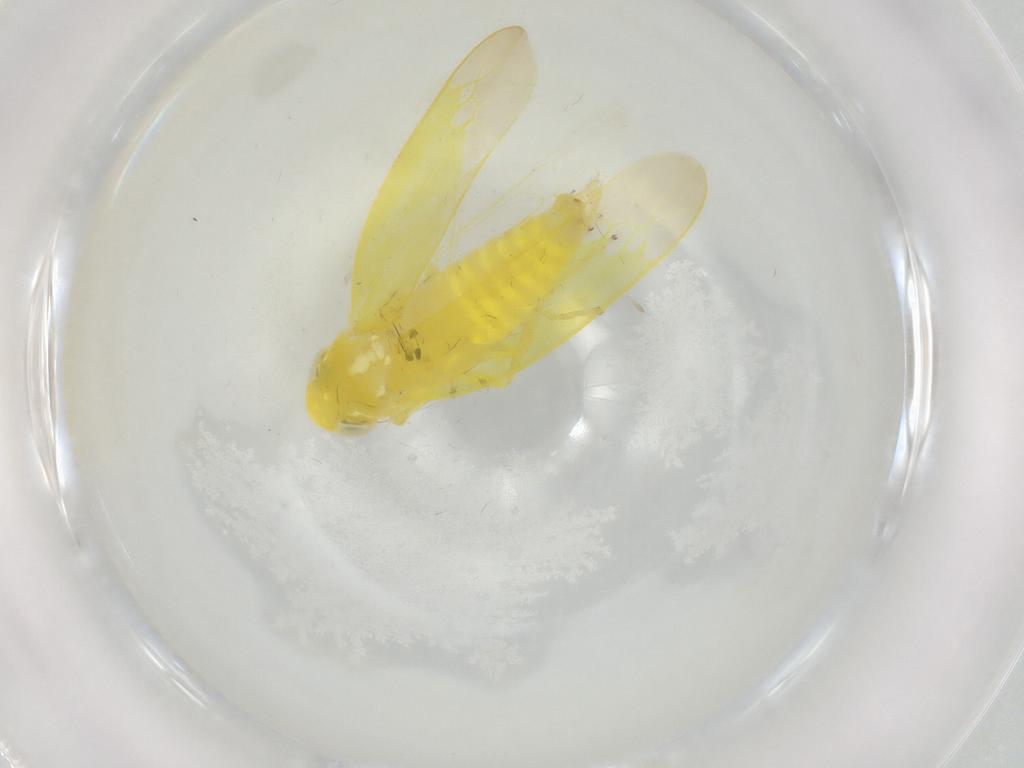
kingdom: Animalia
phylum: Arthropoda
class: Insecta
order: Hemiptera
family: Cicadellidae
